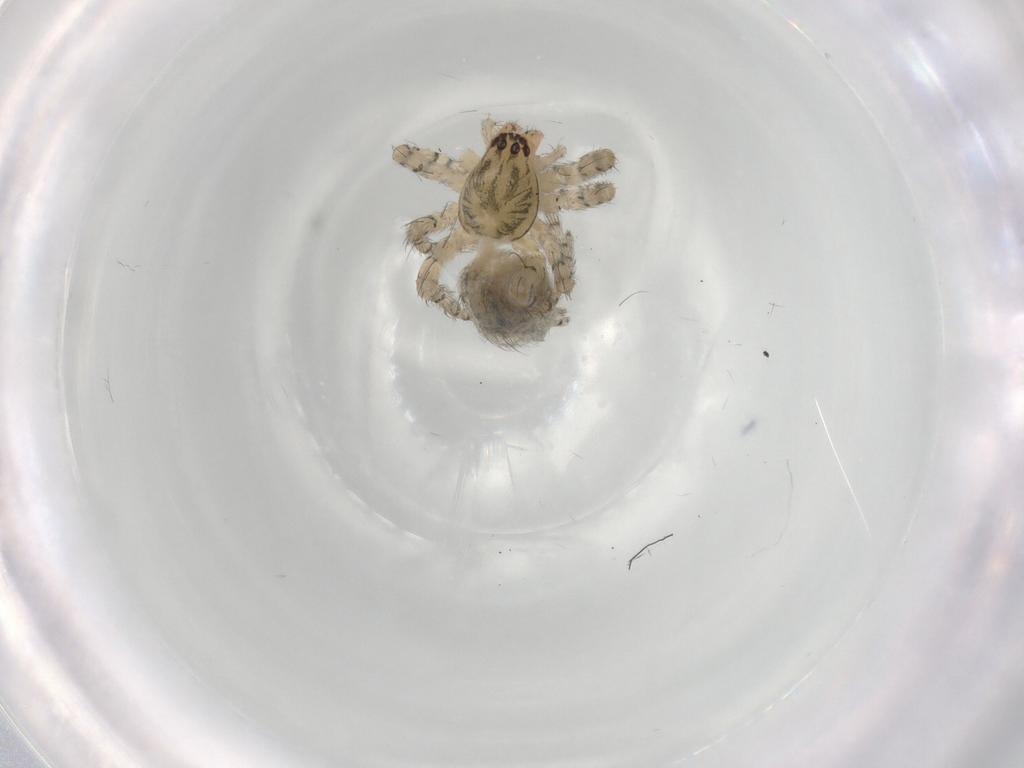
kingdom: Animalia
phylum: Arthropoda
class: Arachnida
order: Araneae
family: Anyphaenidae
